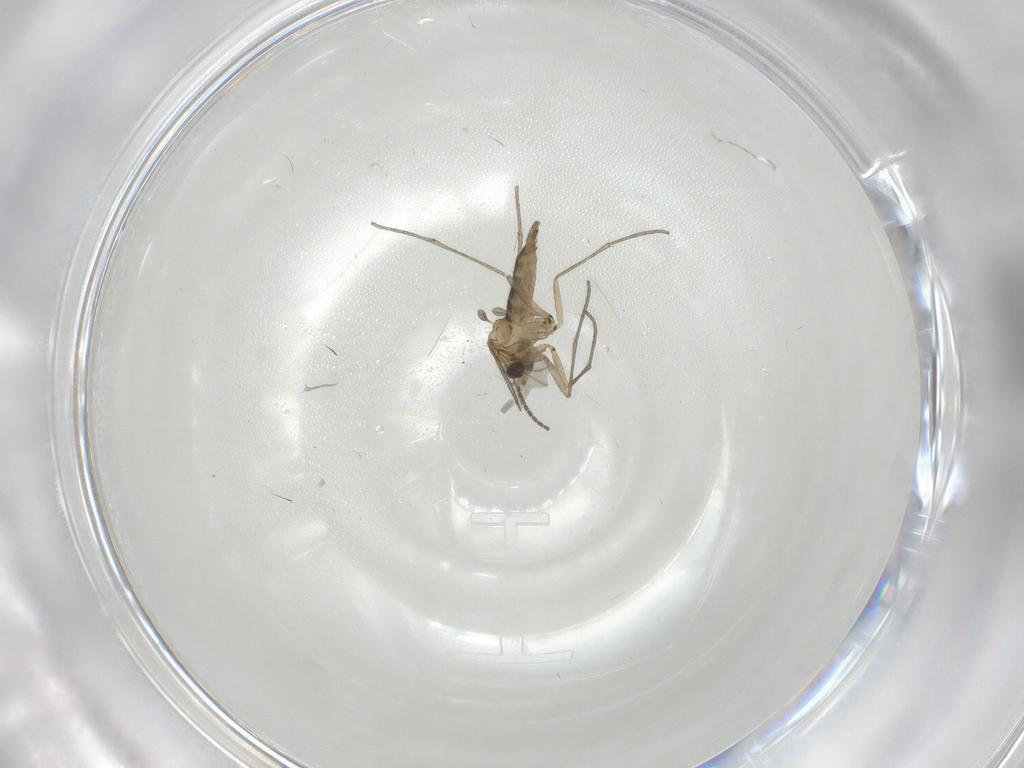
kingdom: Animalia
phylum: Arthropoda
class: Insecta
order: Diptera
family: Sciaridae
